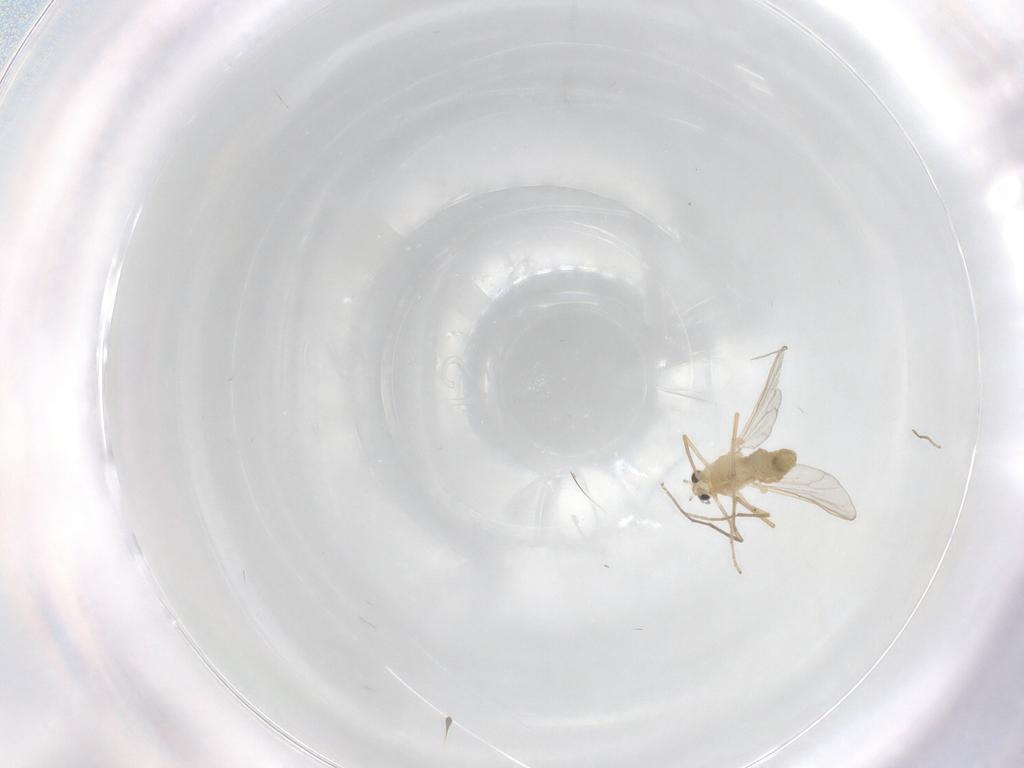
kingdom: Animalia
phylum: Arthropoda
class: Insecta
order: Diptera
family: Chironomidae
